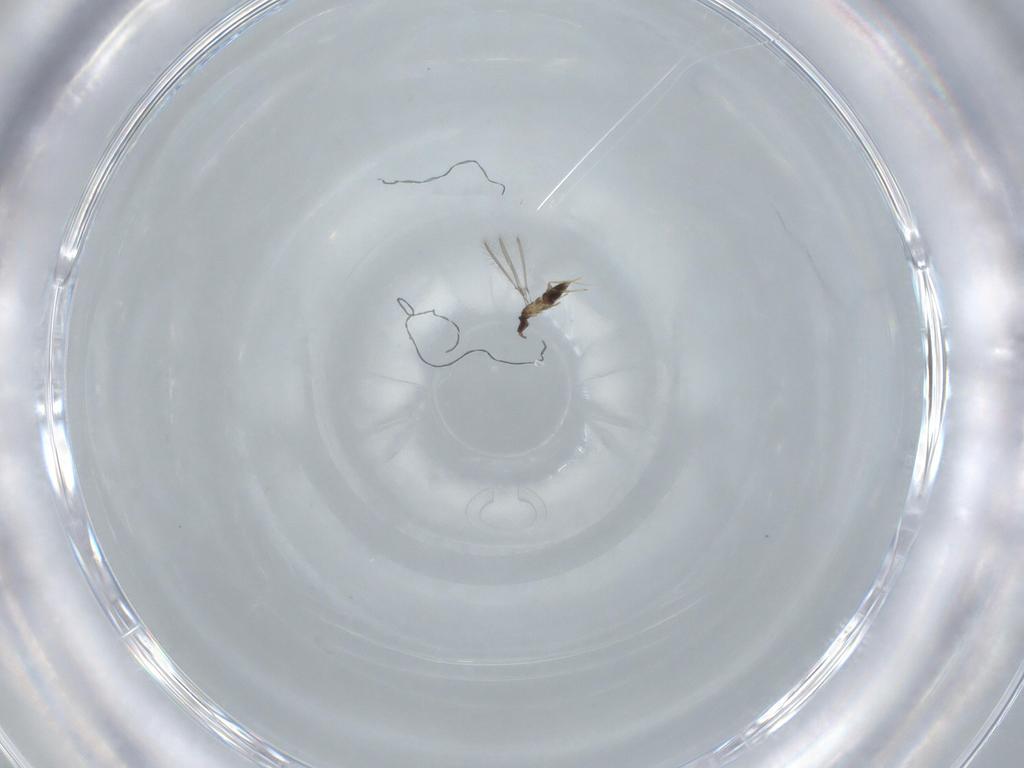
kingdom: Animalia
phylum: Arthropoda
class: Insecta
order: Hymenoptera
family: Mymaridae
